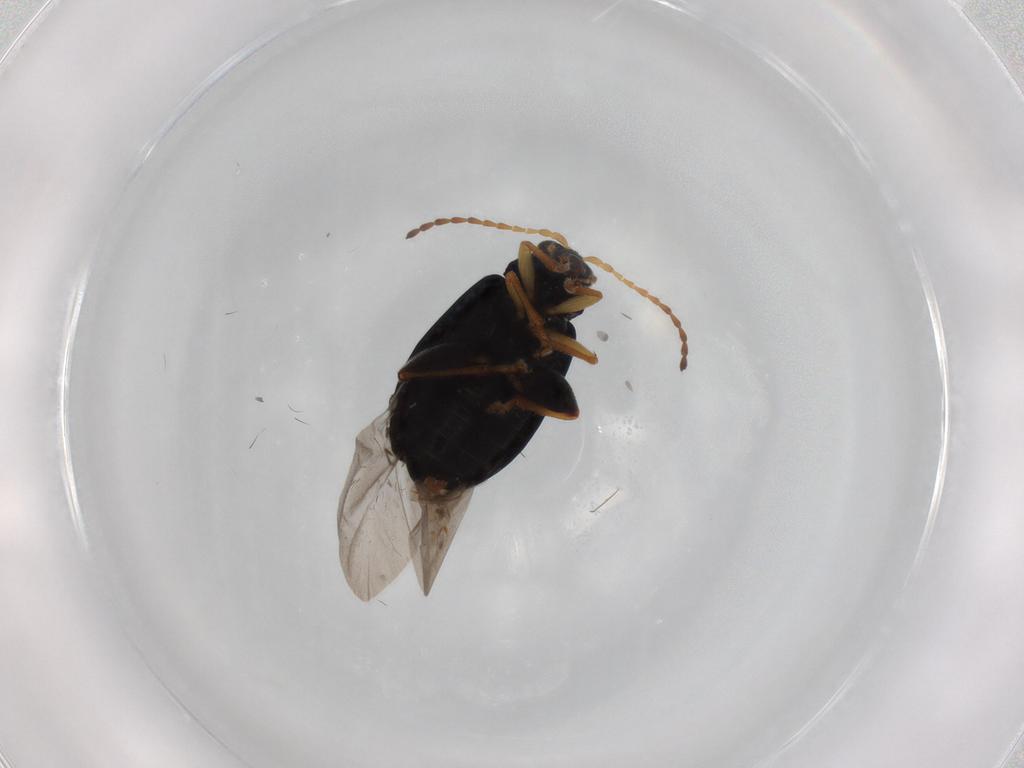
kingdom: Animalia
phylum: Arthropoda
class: Insecta
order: Coleoptera
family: Chrysomelidae
